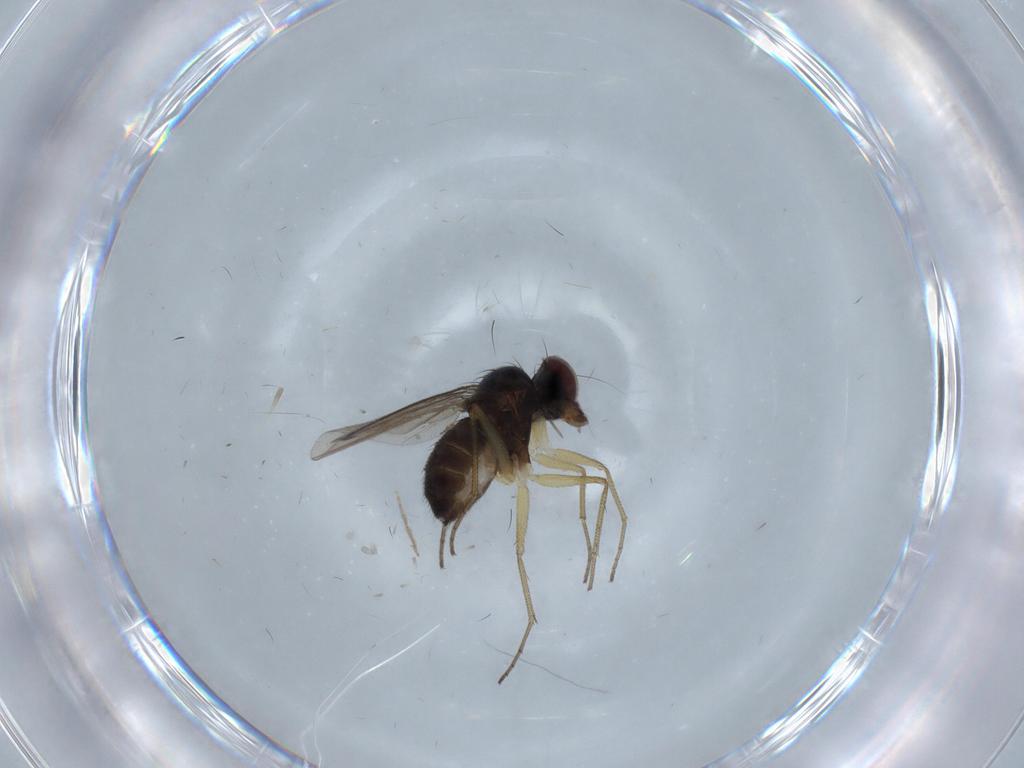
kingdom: Animalia
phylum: Arthropoda
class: Insecta
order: Diptera
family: Dolichopodidae
